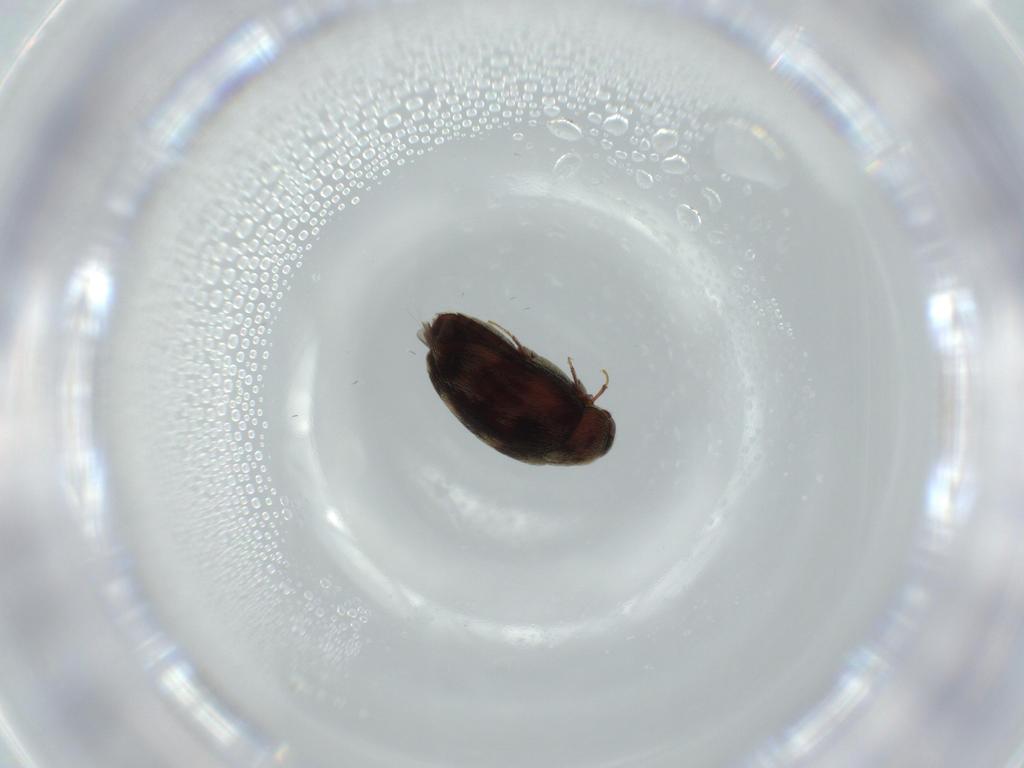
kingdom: Animalia
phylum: Arthropoda
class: Insecta
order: Coleoptera
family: Dermestidae
